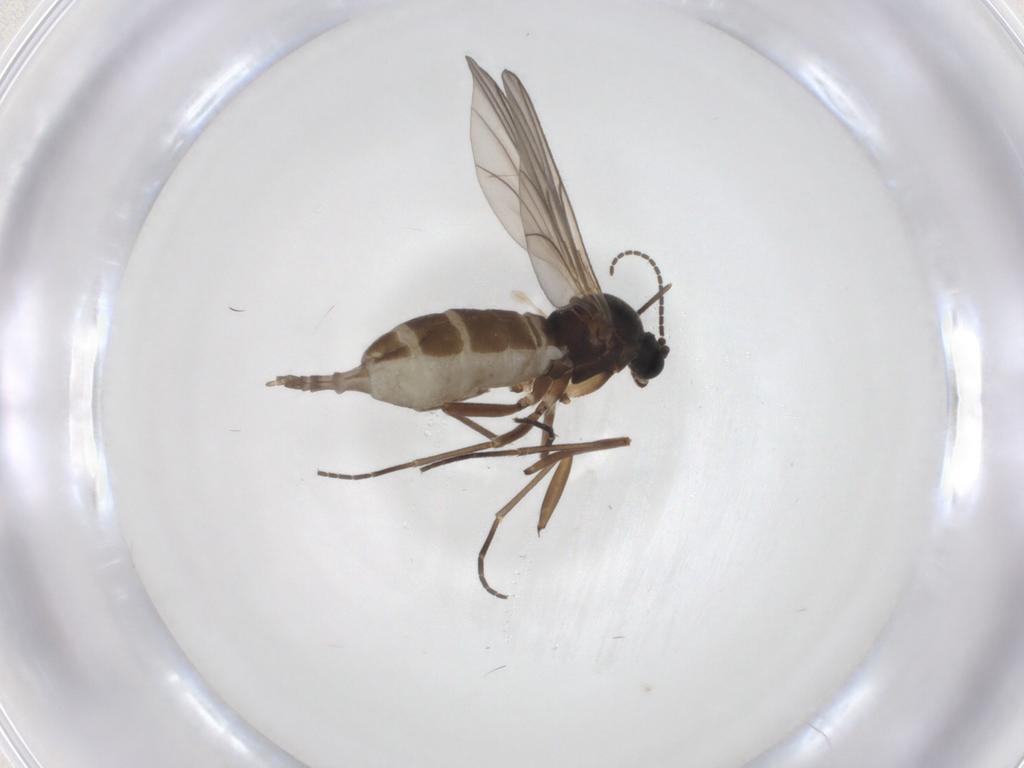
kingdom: Animalia
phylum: Arthropoda
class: Insecta
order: Diptera
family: Sciaridae
